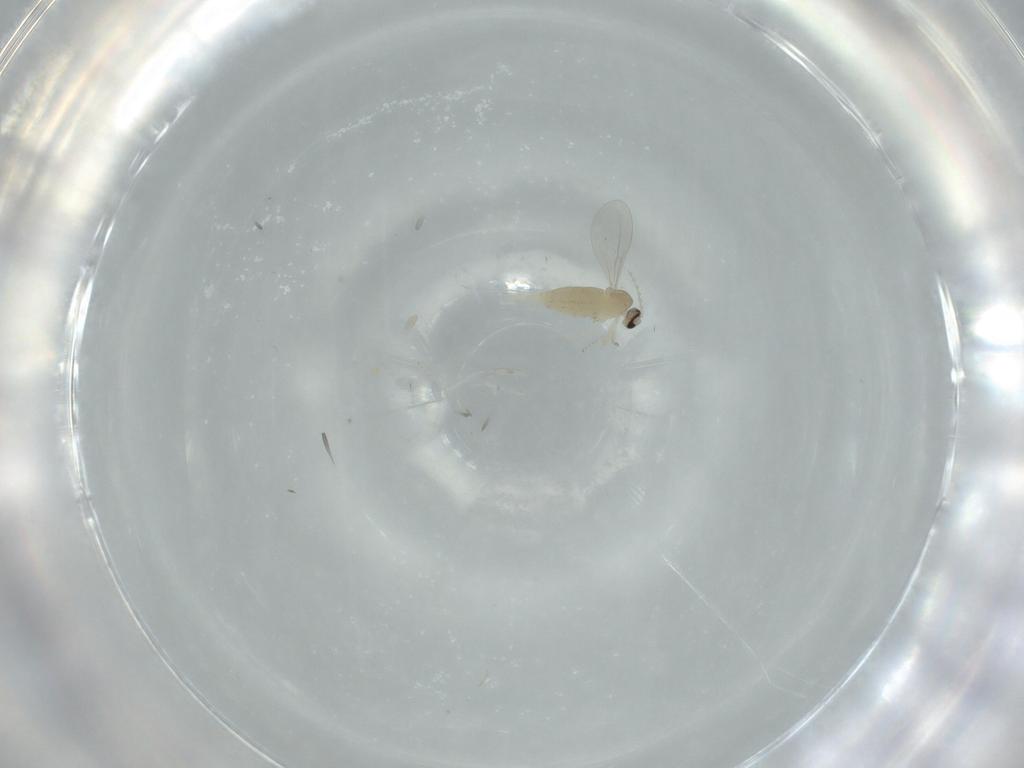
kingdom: Animalia
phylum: Arthropoda
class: Insecta
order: Diptera
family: Cecidomyiidae
